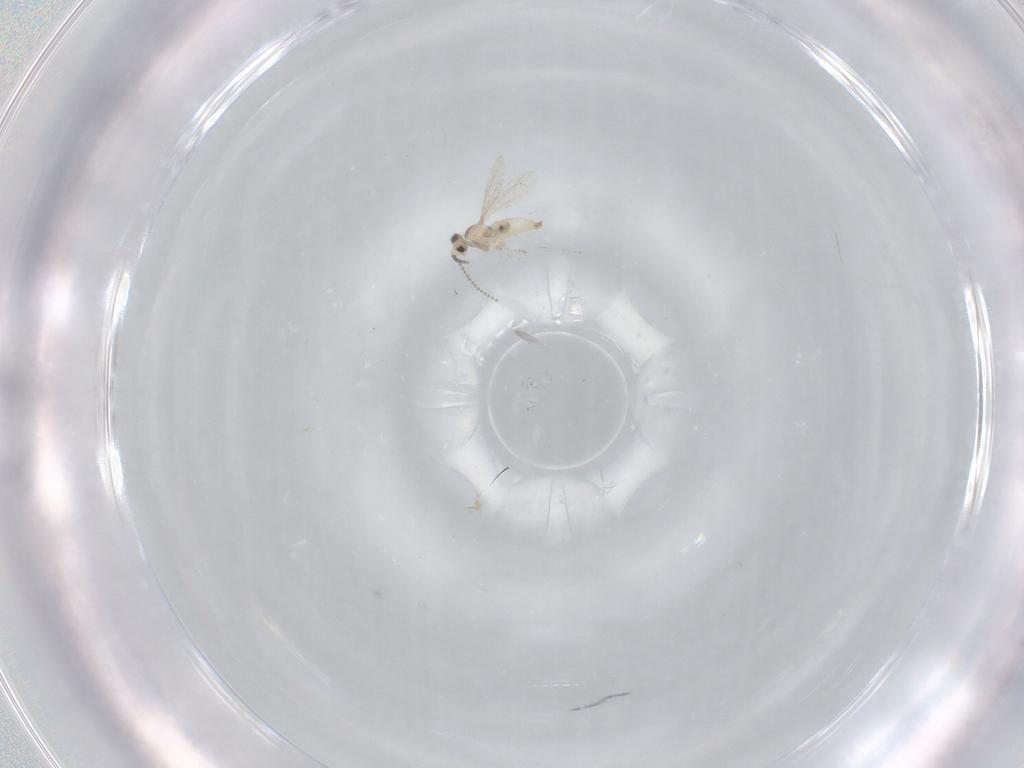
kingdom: Animalia
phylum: Arthropoda
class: Insecta
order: Diptera
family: Cecidomyiidae
